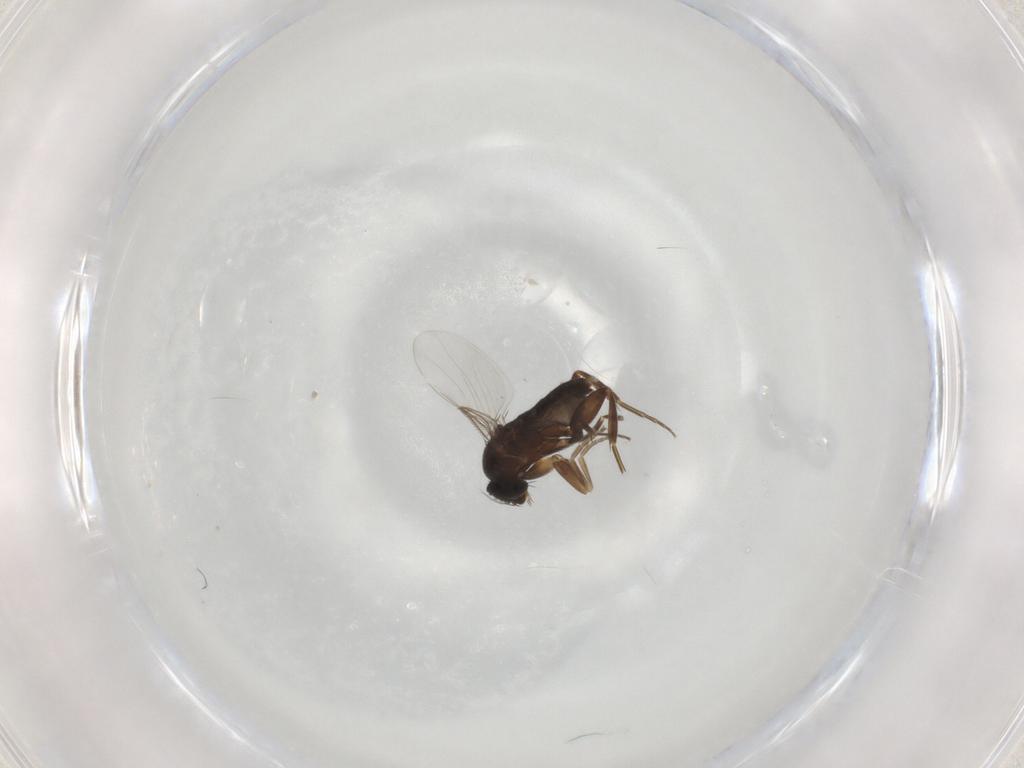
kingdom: Animalia
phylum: Arthropoda
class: Insecta
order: Diptera
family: Phoridae
